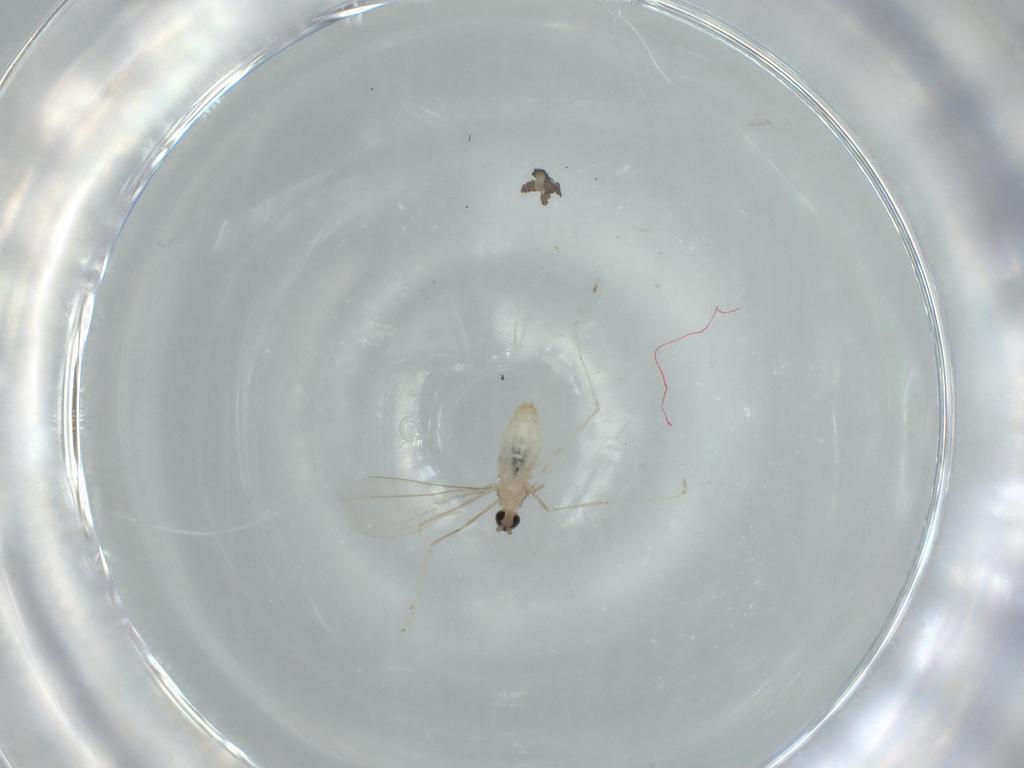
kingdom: Animalia
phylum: Arthropoda
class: Insecta
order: Diptera
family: Cecidomyiidae
